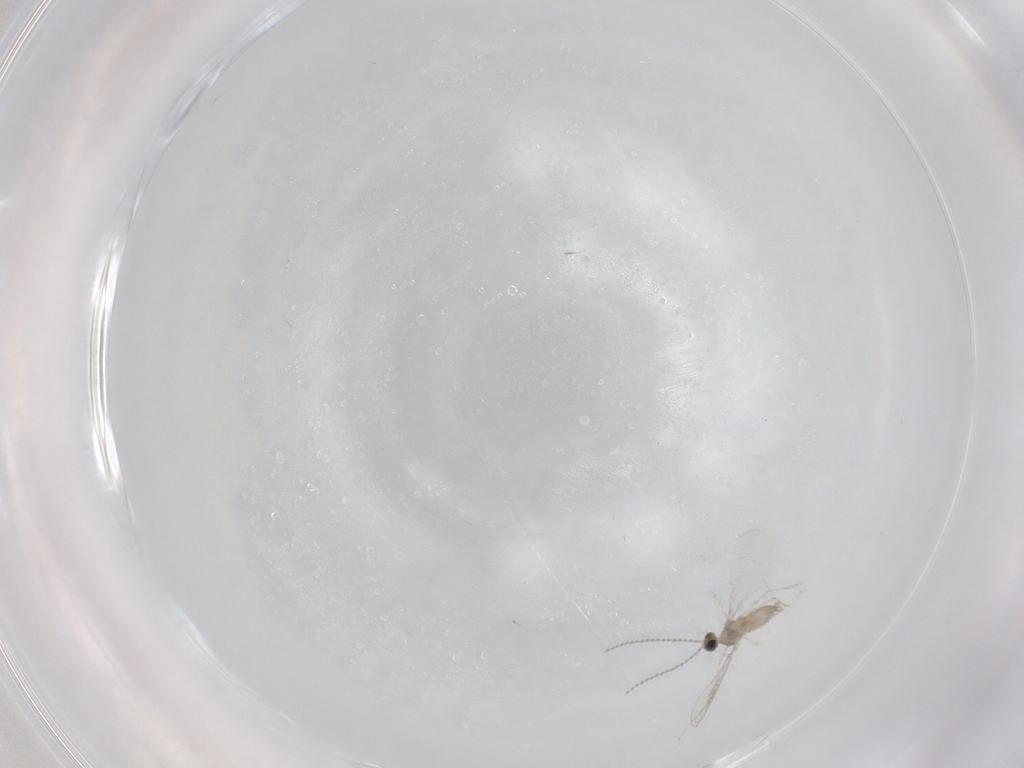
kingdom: Animalia
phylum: Arthropoda
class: Insecta
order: Diptera
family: Cecidomyiidae
